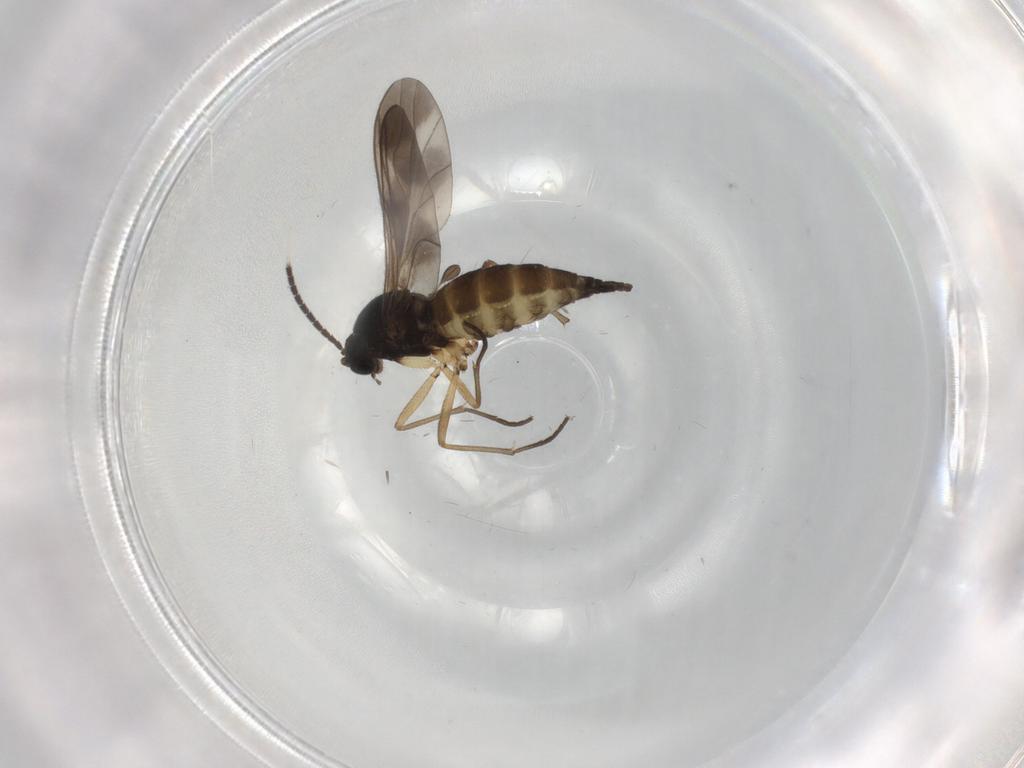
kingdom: Animalia
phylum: Arthropoda
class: Insecta
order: Diptera
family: Sciaridae
